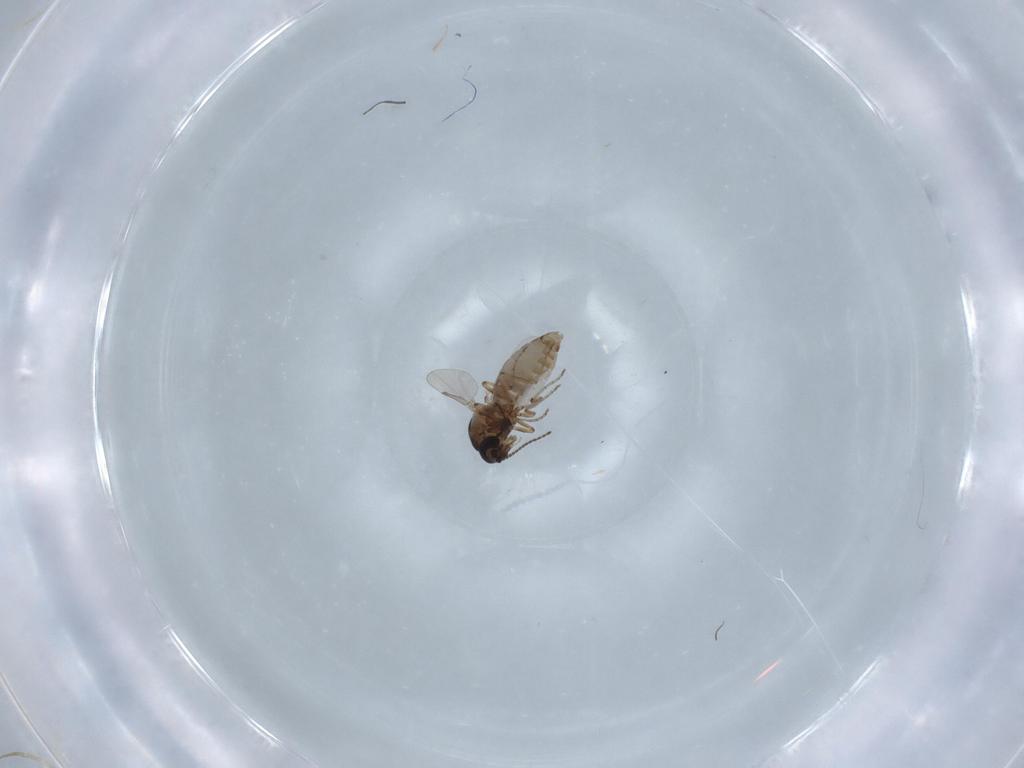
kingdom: Animalia
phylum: Arthropoda
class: Insecta
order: Diptera
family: Ceratopogonidae
